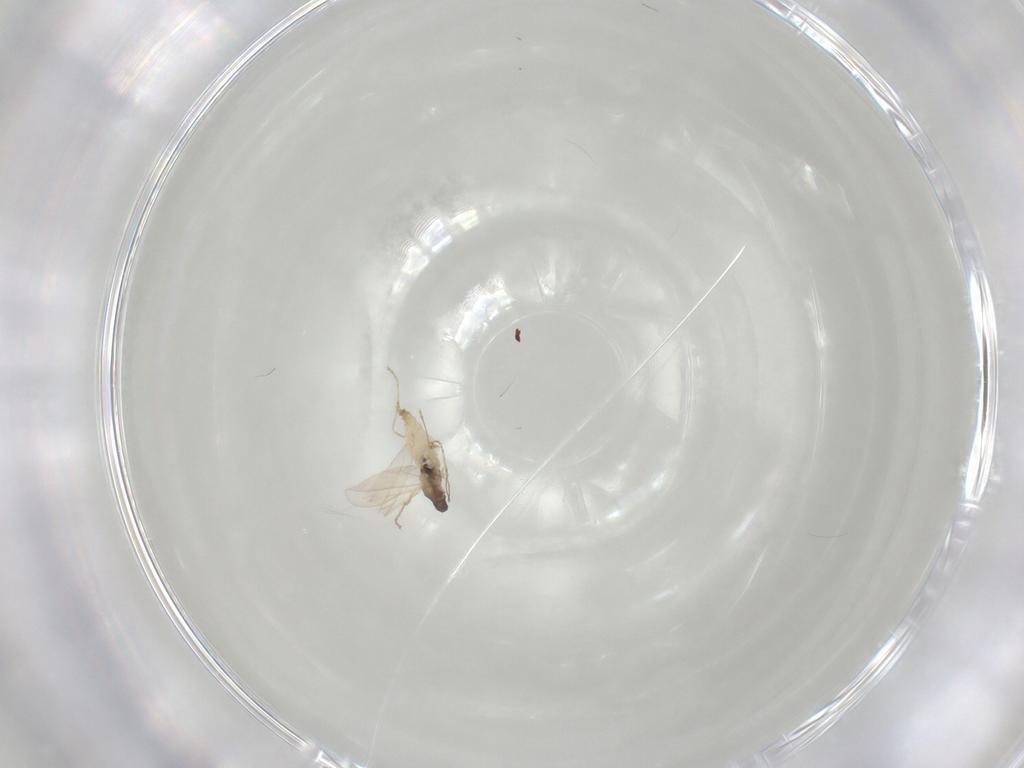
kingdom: Animalia
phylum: Arthropoda
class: Insecta
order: Diptera
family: Cecidomyiidae
